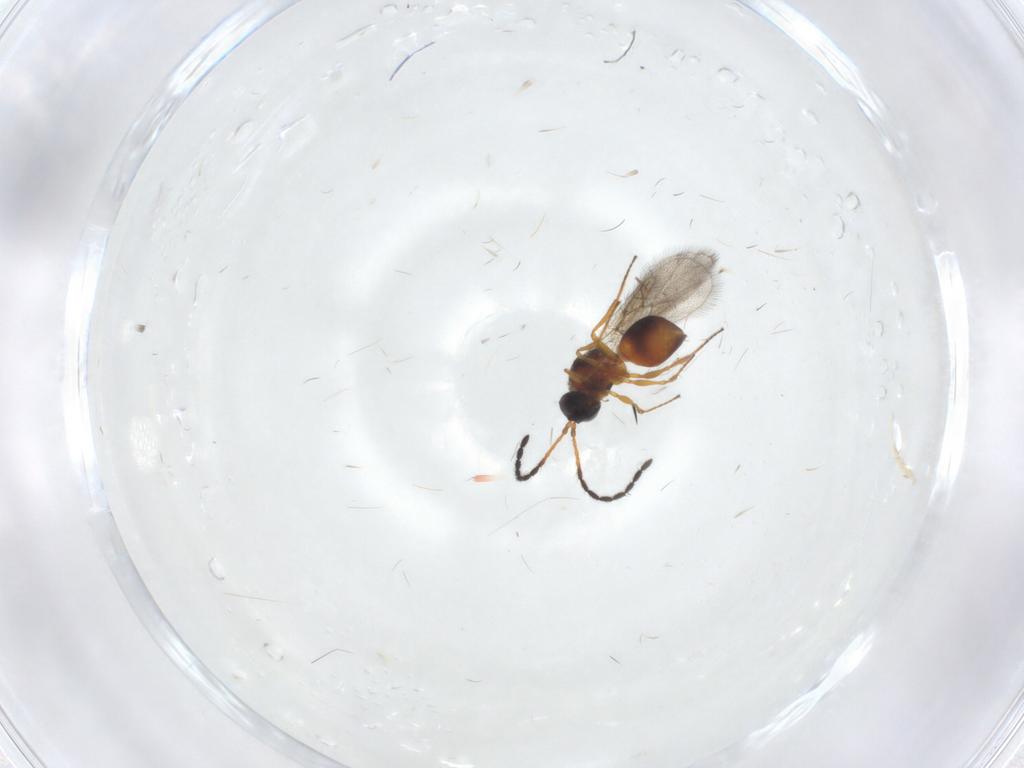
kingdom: Animalia
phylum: Arthropoda
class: Insecta
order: Hymenoptera
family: Figitidae
